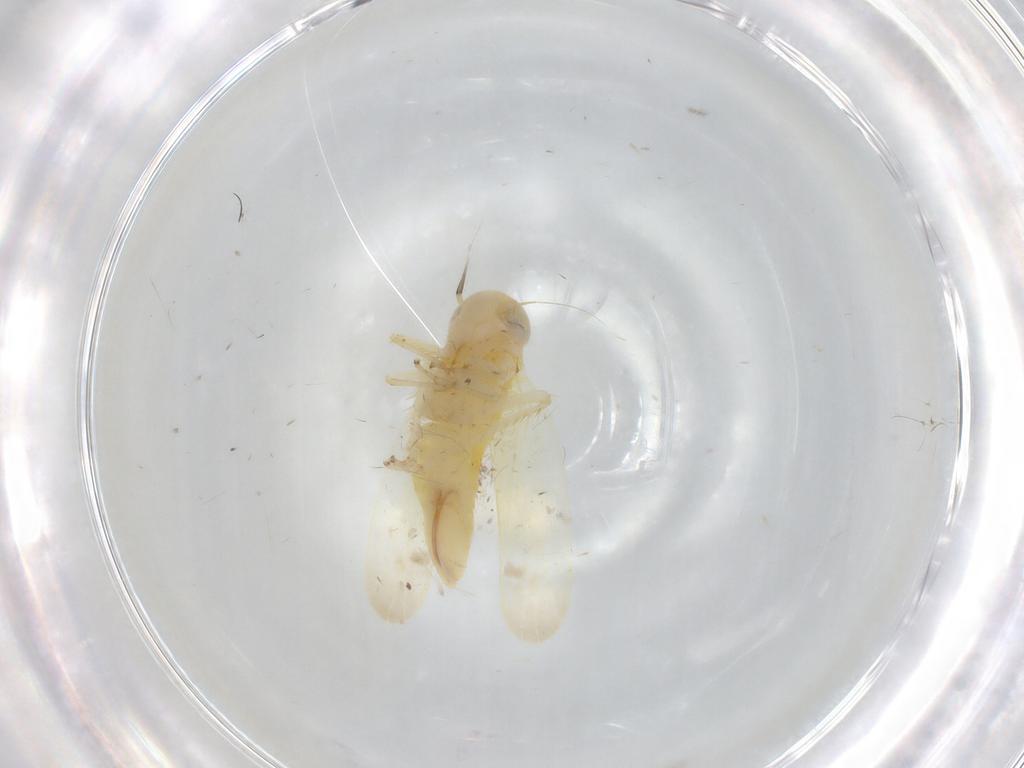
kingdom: Animalia
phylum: Arthropoda
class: Insecta
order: Hemiptera
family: Cicadellidae
